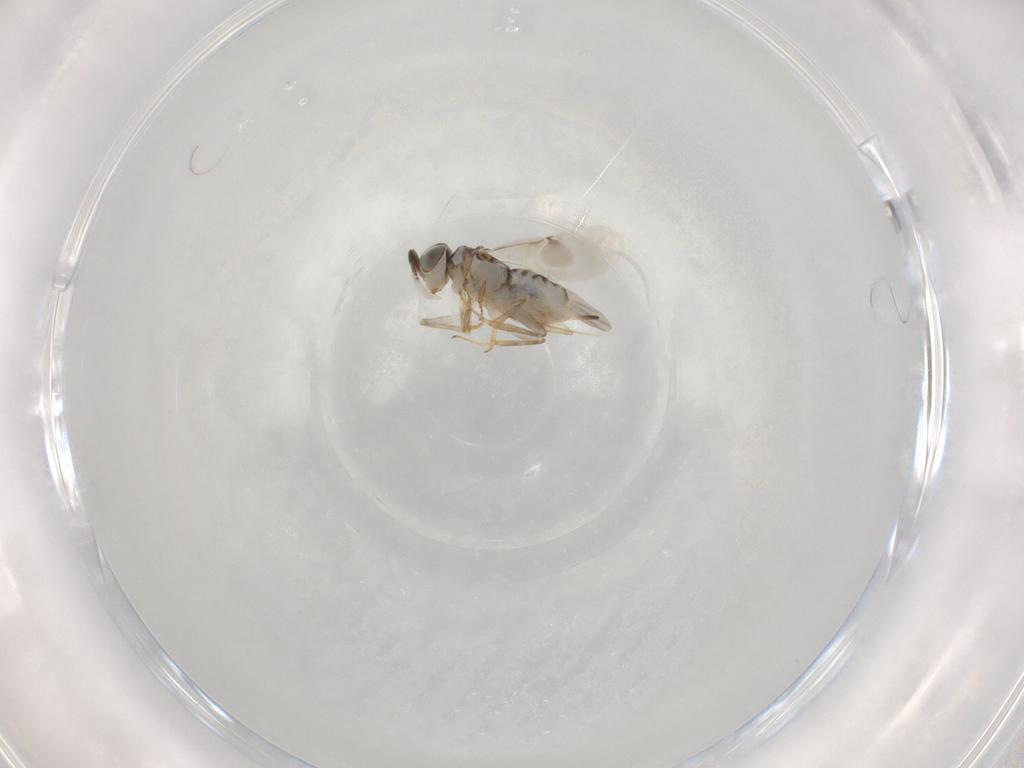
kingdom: Animalia
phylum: Arthropoda
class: Insecta
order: Hymenoptera
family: Encyrtidae
